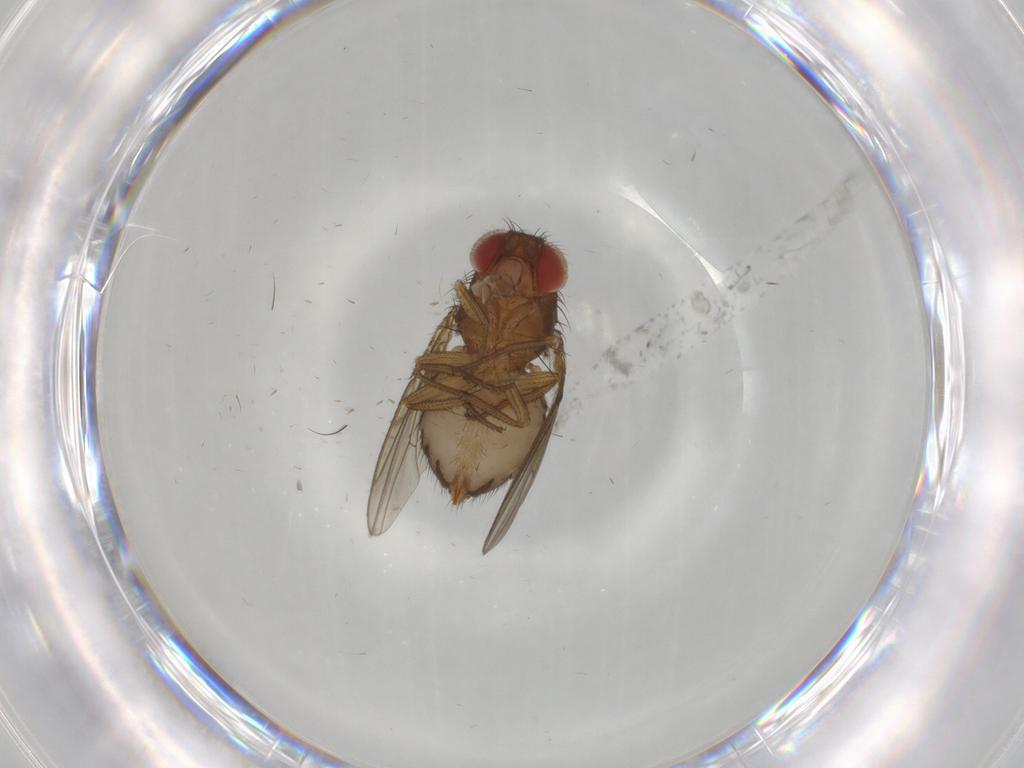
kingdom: Animalia
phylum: Arthropoda
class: Insecta
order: Diptera
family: Drosophilidae
